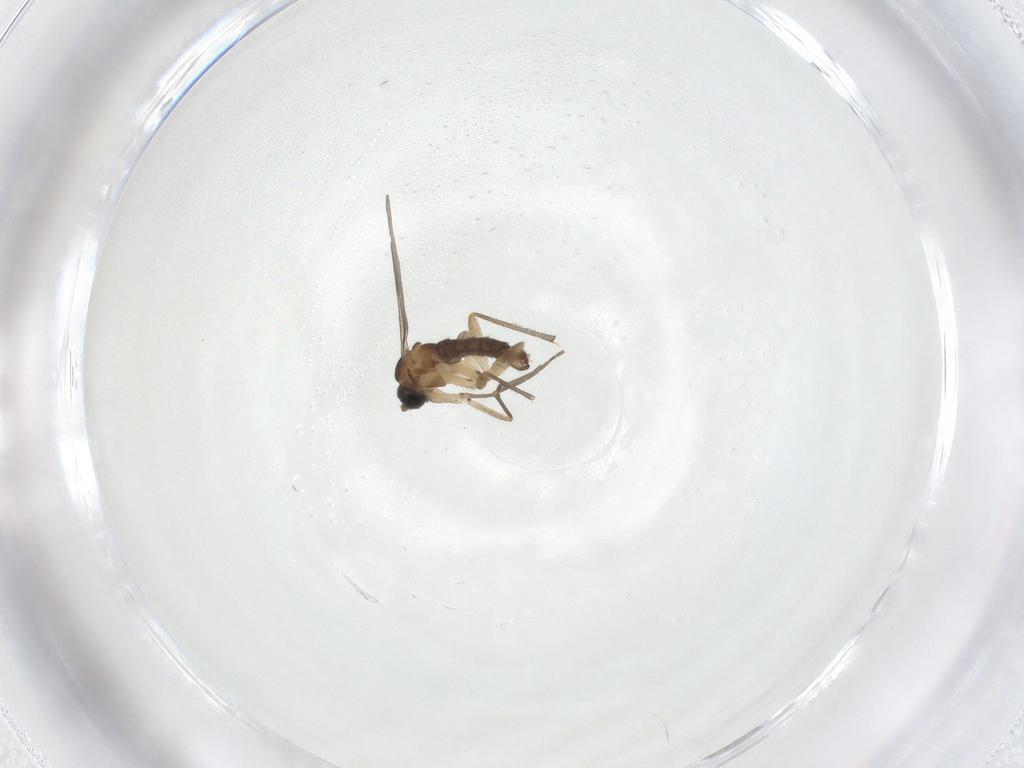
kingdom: Animalia
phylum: Arthropoda
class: Insecta
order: Diptera
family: Sciaridae
